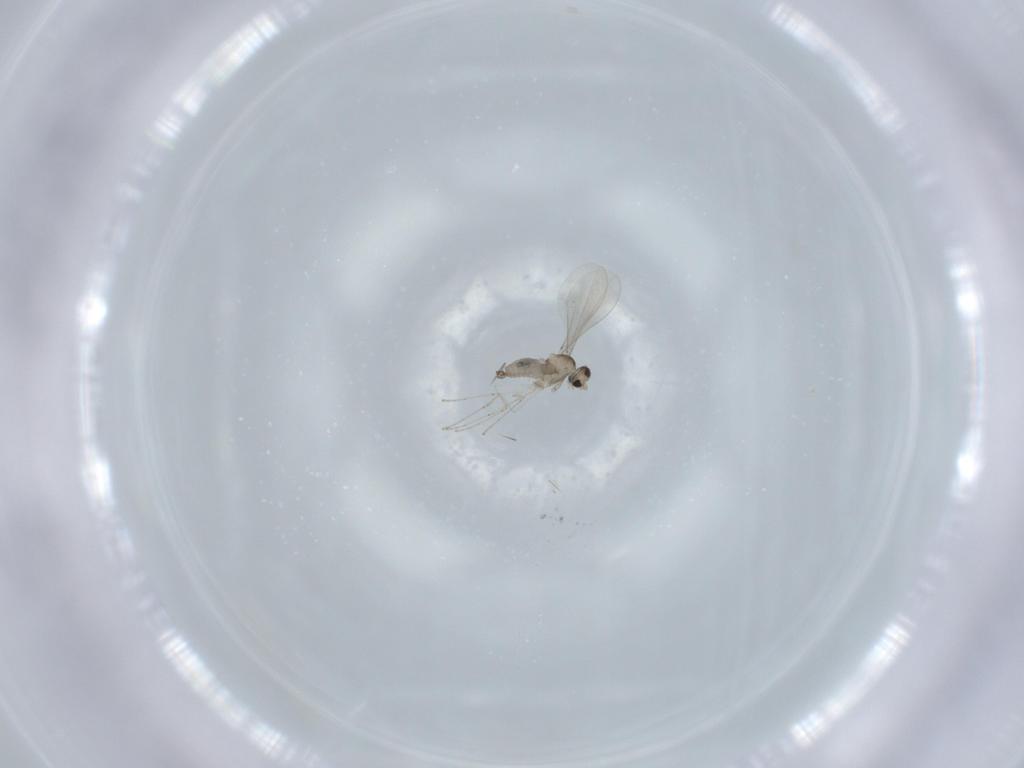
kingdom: Animalia
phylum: Arthropoda
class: Insecta
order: Diptera
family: Cecidomyiidae
